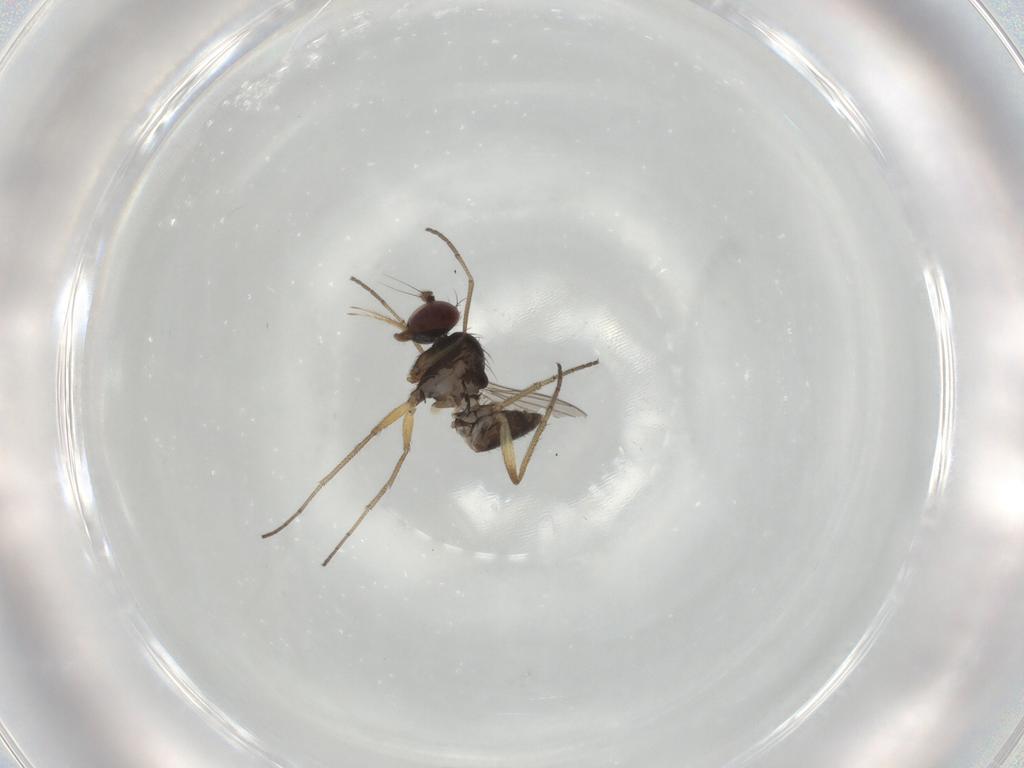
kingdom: Animalia
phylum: Arthropoda
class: Insecta
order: Diptera
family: Dolichopodidae
